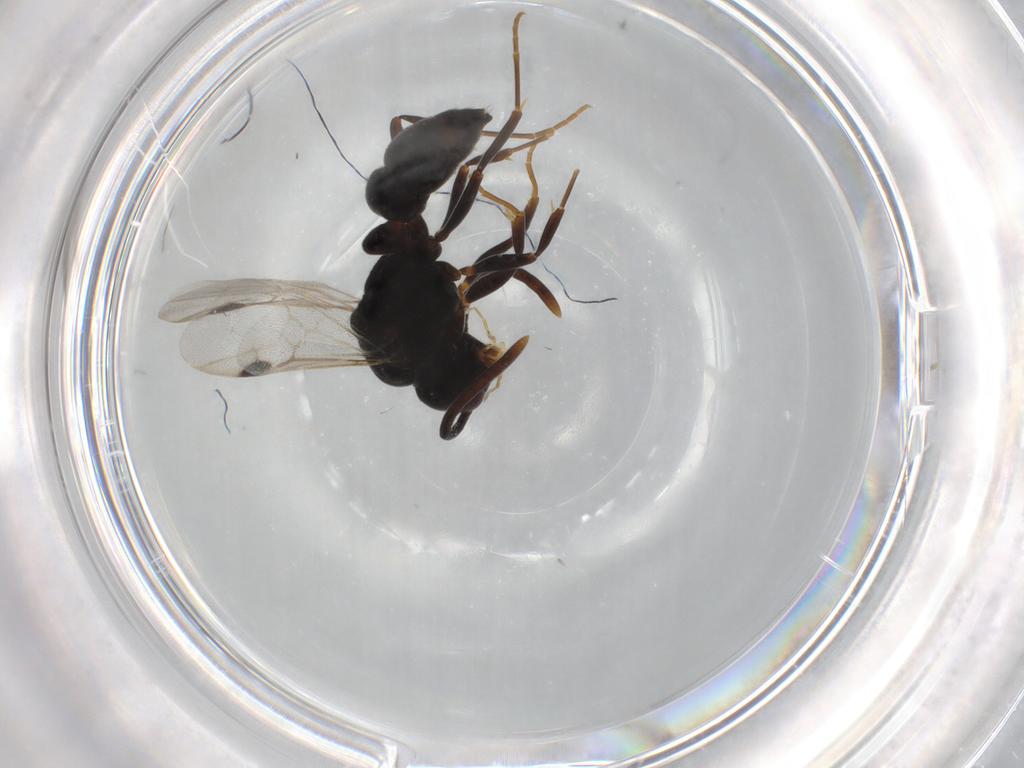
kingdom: Animalia
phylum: Arthropoda
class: Insecta
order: Hymenoptera
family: Formicidae
